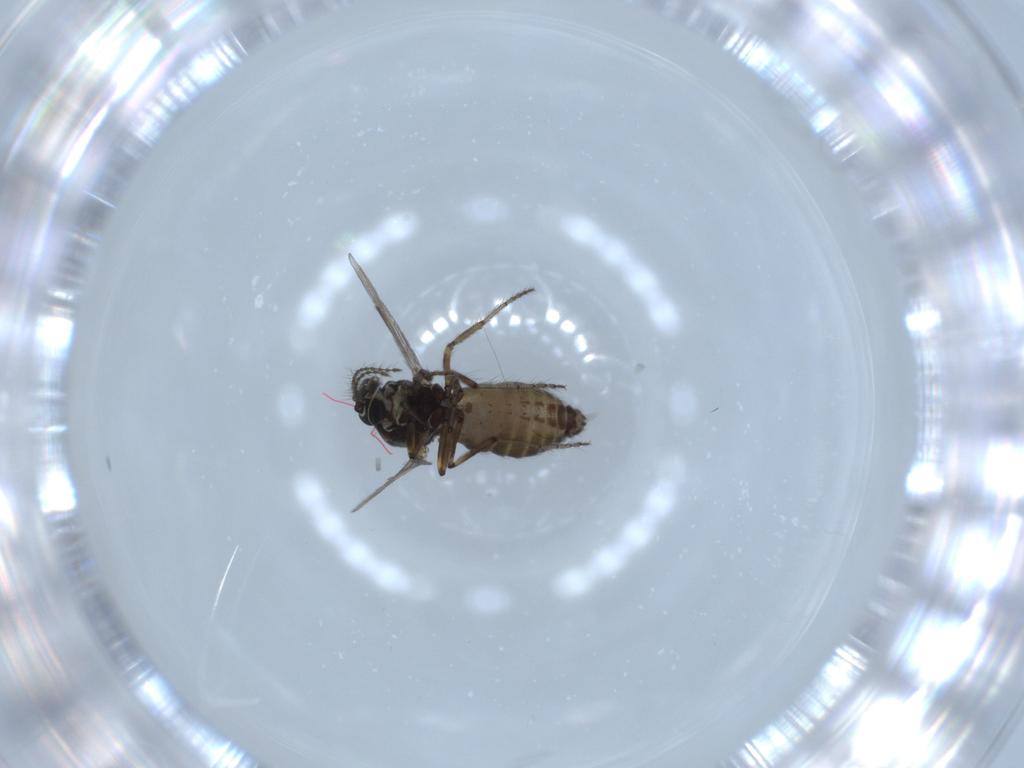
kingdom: Animalia
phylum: Arthropoda
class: Insecta
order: Diptera
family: Ceratopogonidae
